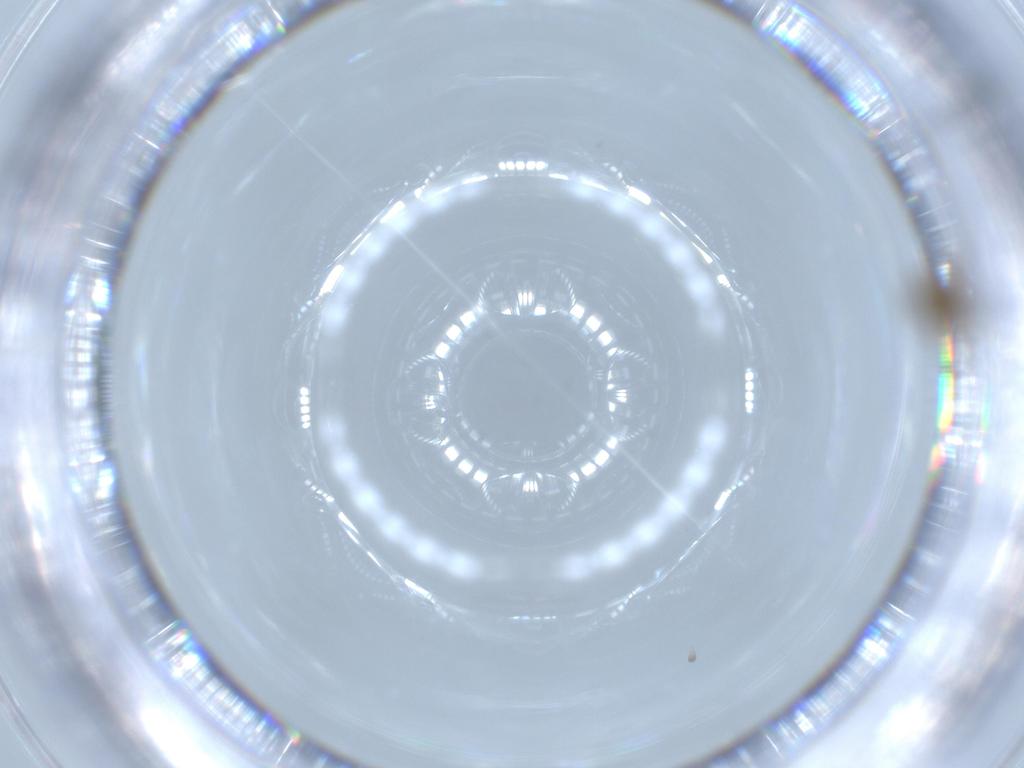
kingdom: Animalia
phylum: Arthropoda
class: Insecta
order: Diptera
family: Chironomidae
